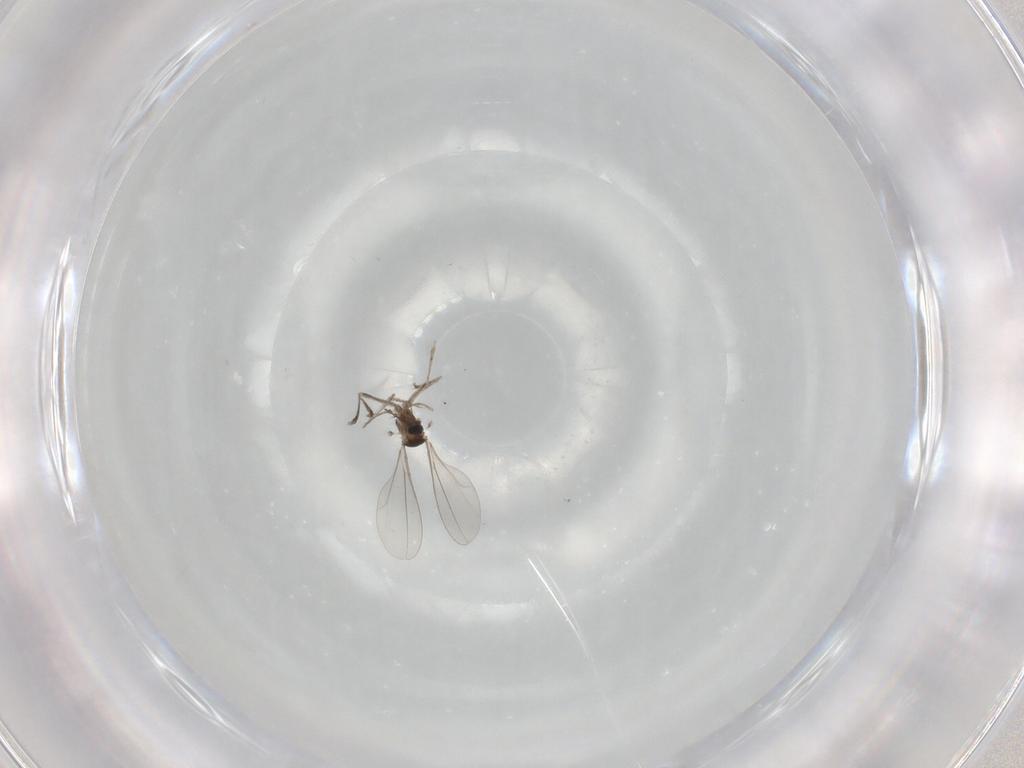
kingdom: Animalia
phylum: Arthropoda
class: Insecta
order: Diptera
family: Cecidomyiidae
